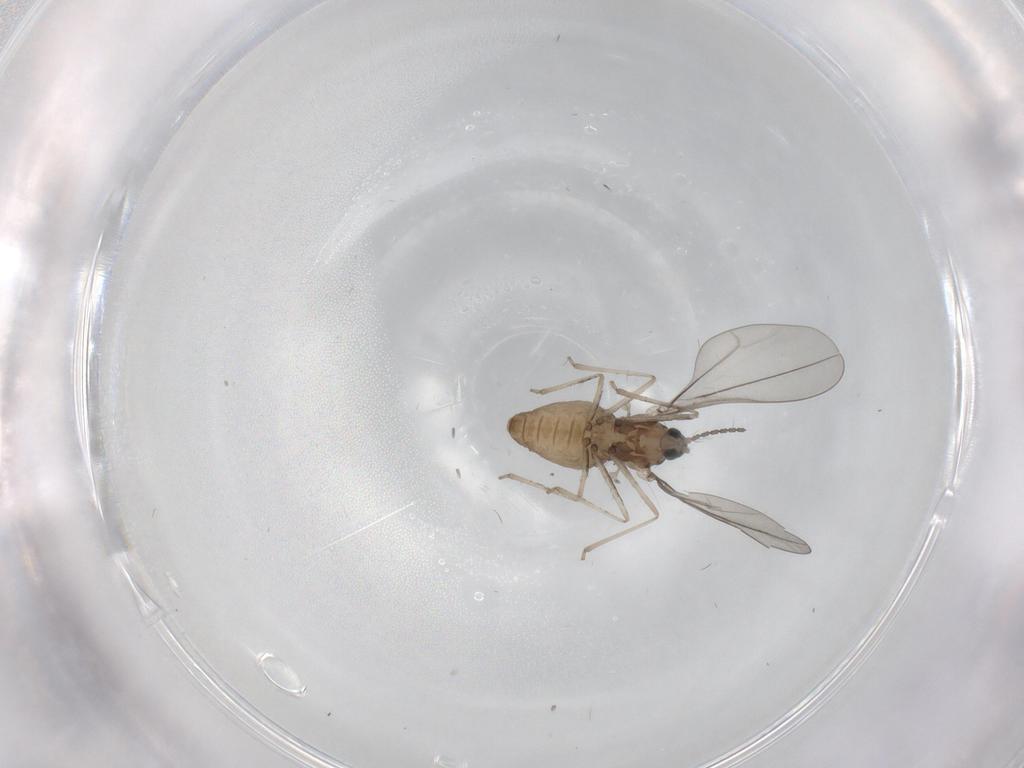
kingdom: Animalia
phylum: Arthropoda
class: Insecta
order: Diptera
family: Cecidomyiidae
